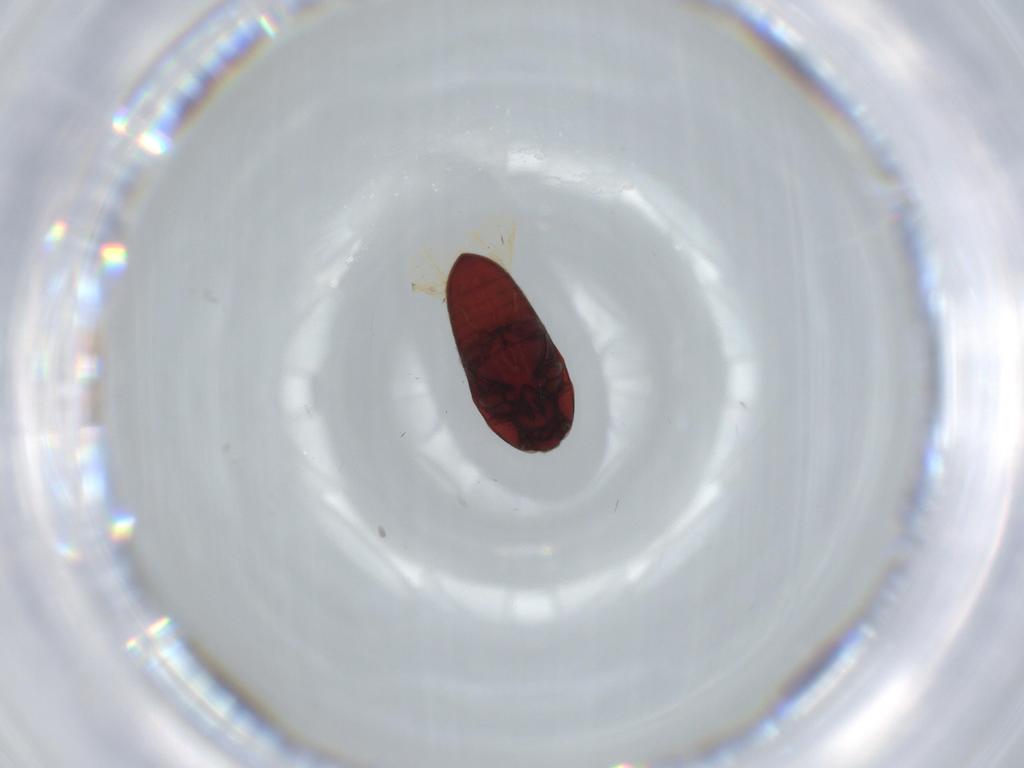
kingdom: Animalia
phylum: Arthropoda
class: Insecta
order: Coleoptera
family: Throscidae
